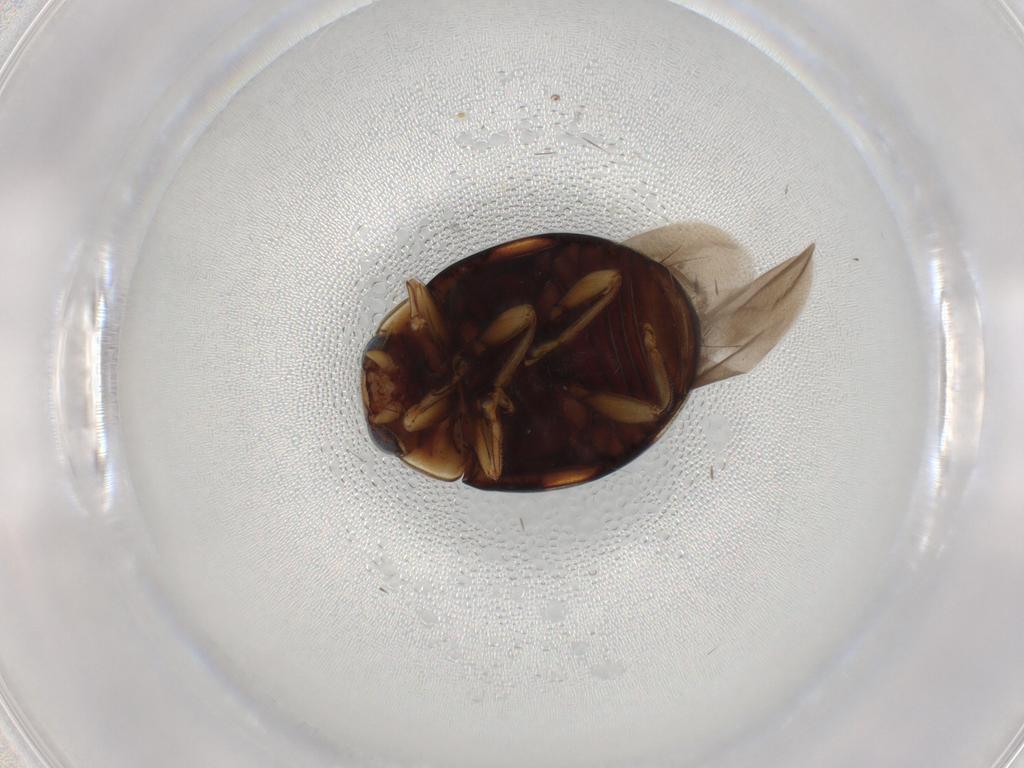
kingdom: Animalia
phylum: Arthropoda
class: Insecta
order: Coleoptera
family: Coccinellidae
